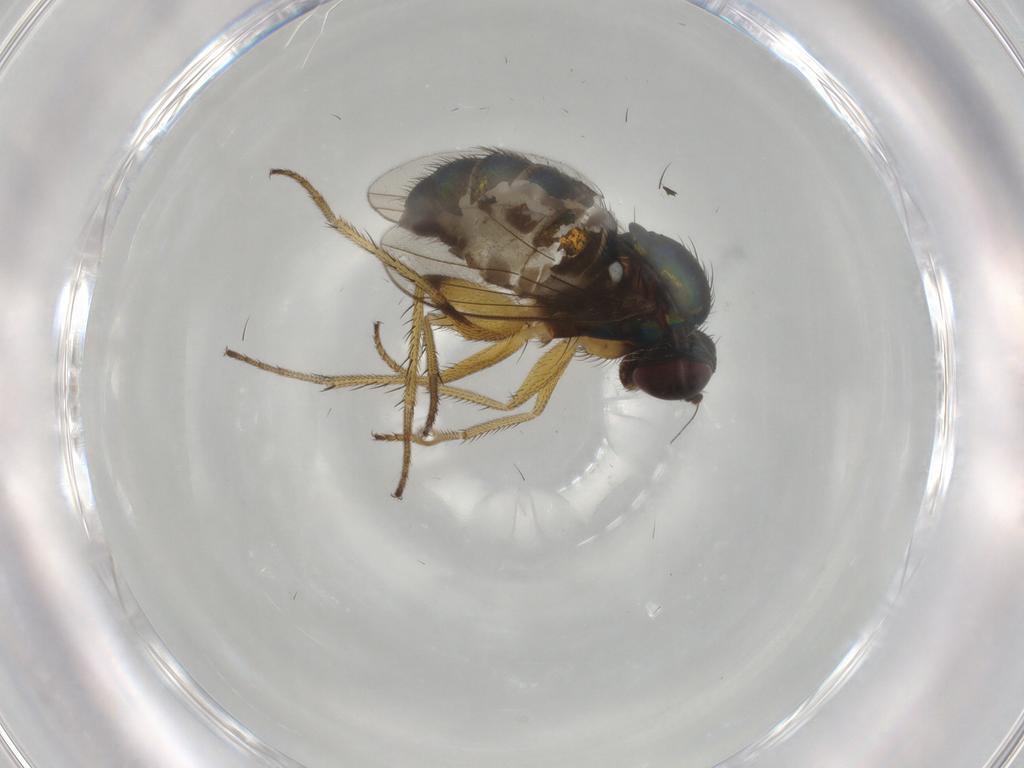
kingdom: Animalia
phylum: Arthropoda
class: Insecta
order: Diptera
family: Dolichopodidae
